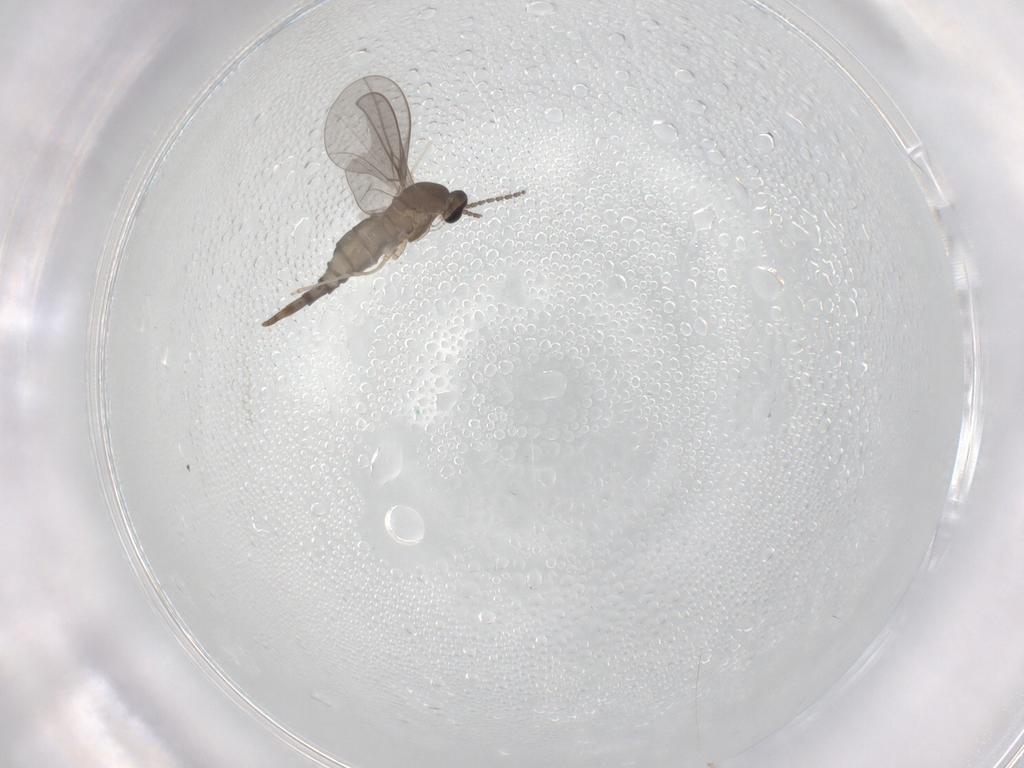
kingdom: Animalia
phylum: Arthropoda
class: Insecta
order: Diptera
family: Cecidomyiidae
